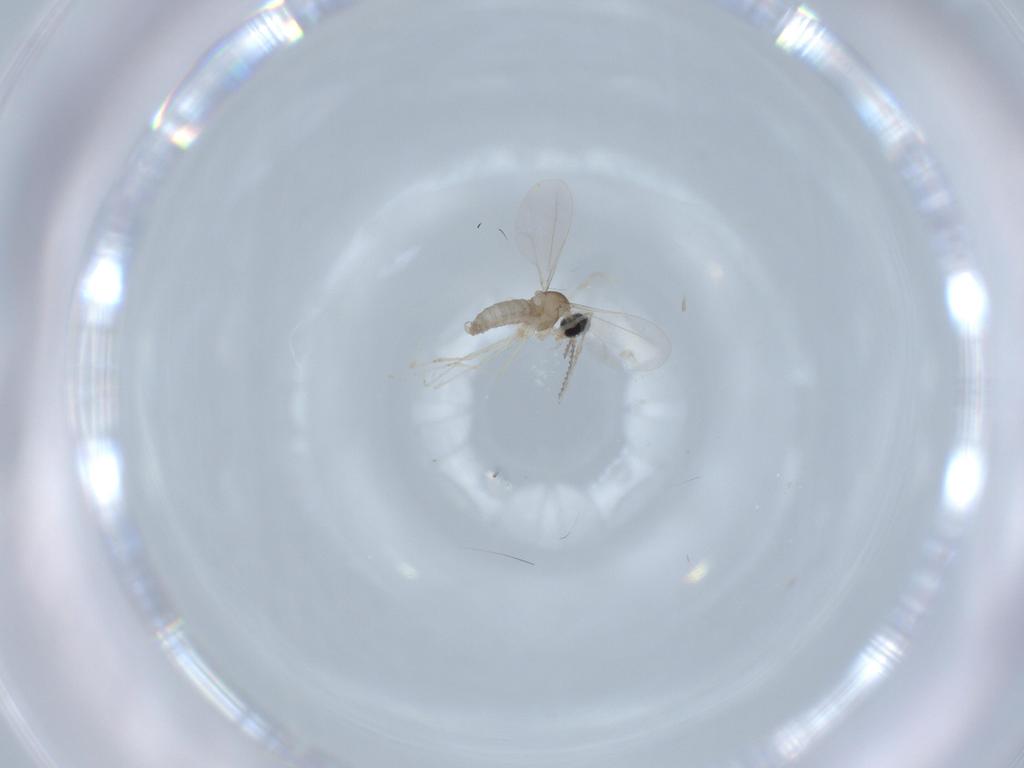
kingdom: Animalia
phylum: Arthropoda
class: Insecta
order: Diptera
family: Cecidomyiidae
